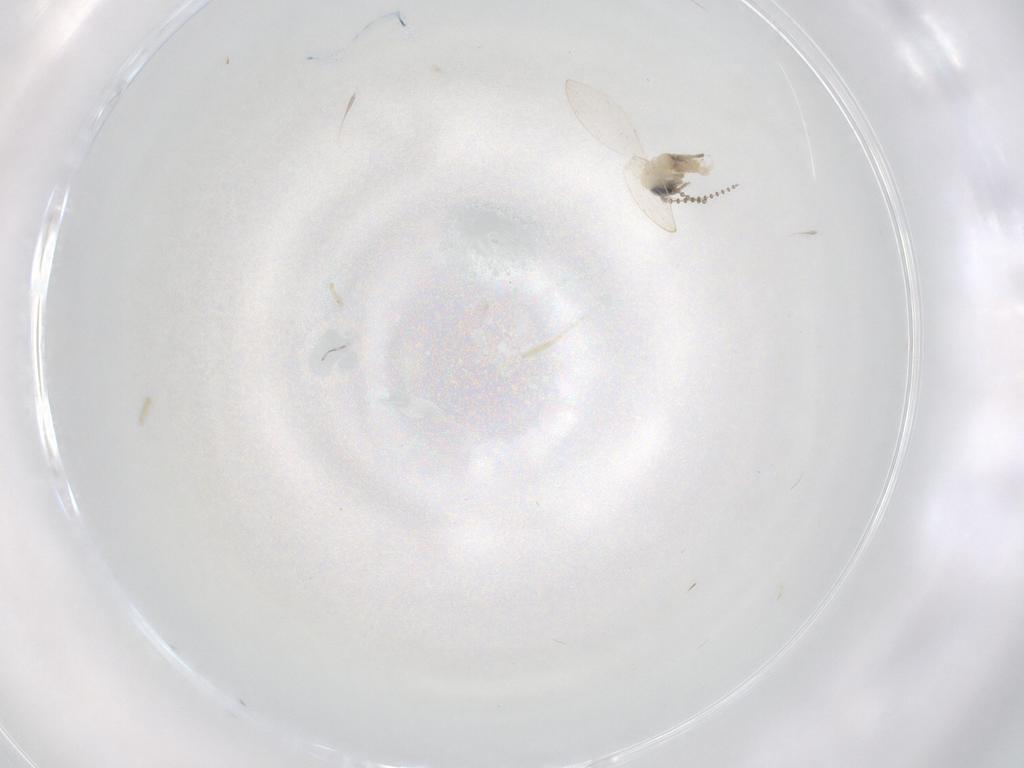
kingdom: Animalia
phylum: Arthropoda
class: Insecta
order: Diptera
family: Psychodidae
